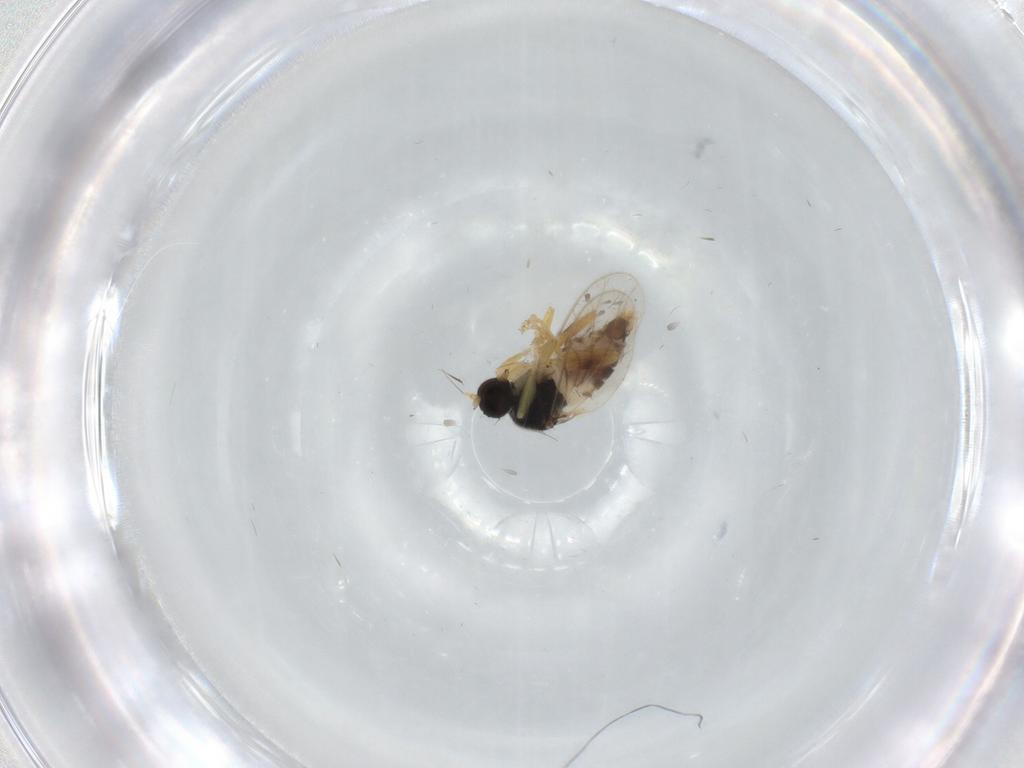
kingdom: Animalia
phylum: Arthropoda
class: Insecta
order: Diptera
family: Hybotidae
